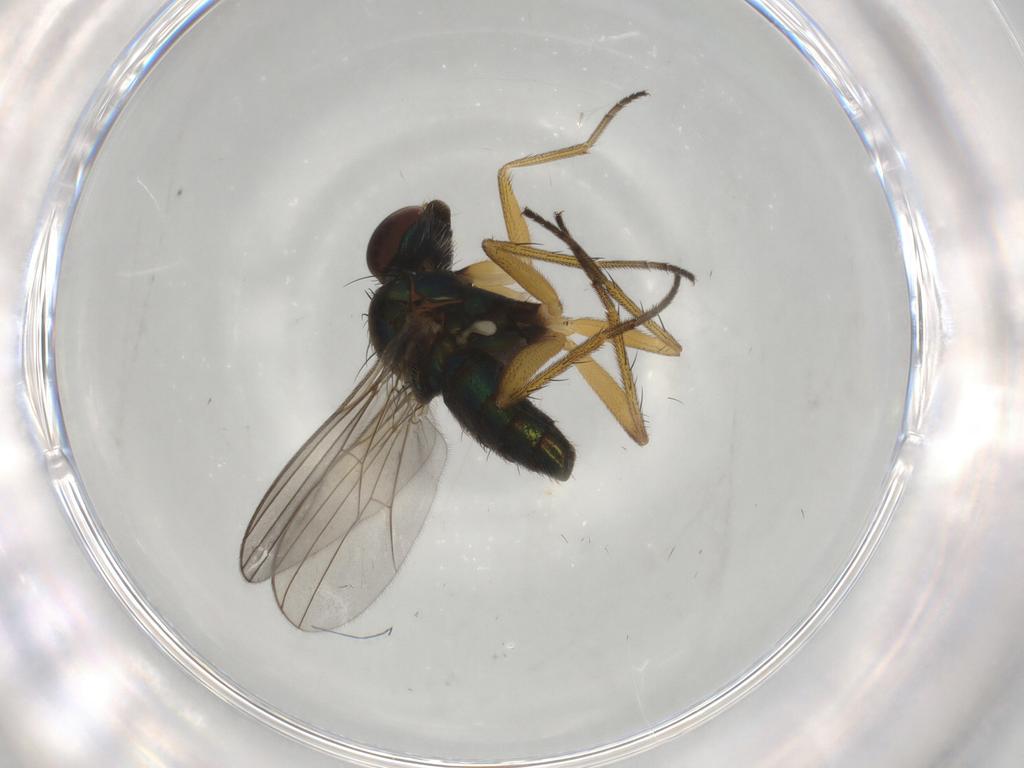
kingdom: Animalia
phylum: Arthropoda
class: Insecta
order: Diptera
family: Dolichopodidae
